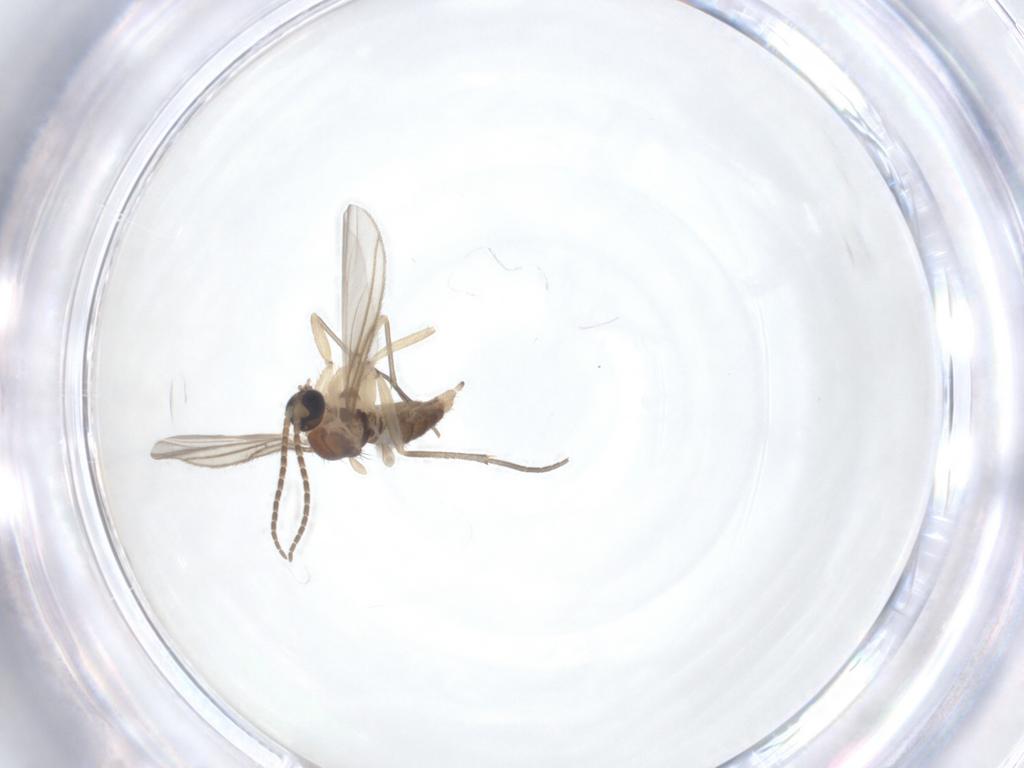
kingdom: Animalia
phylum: Arthropoda
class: Insecta
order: Diptera
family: Sciaridae
